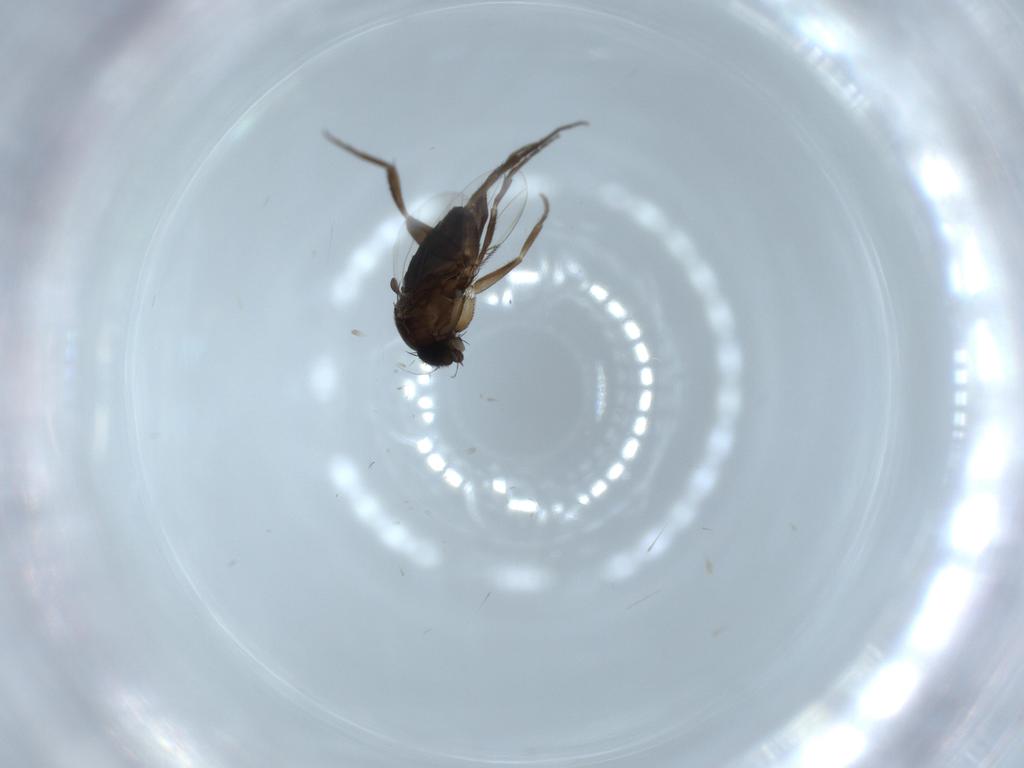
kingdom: Animalia
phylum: Arthropoda
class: Insecta
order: Diptera
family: Phoridae
